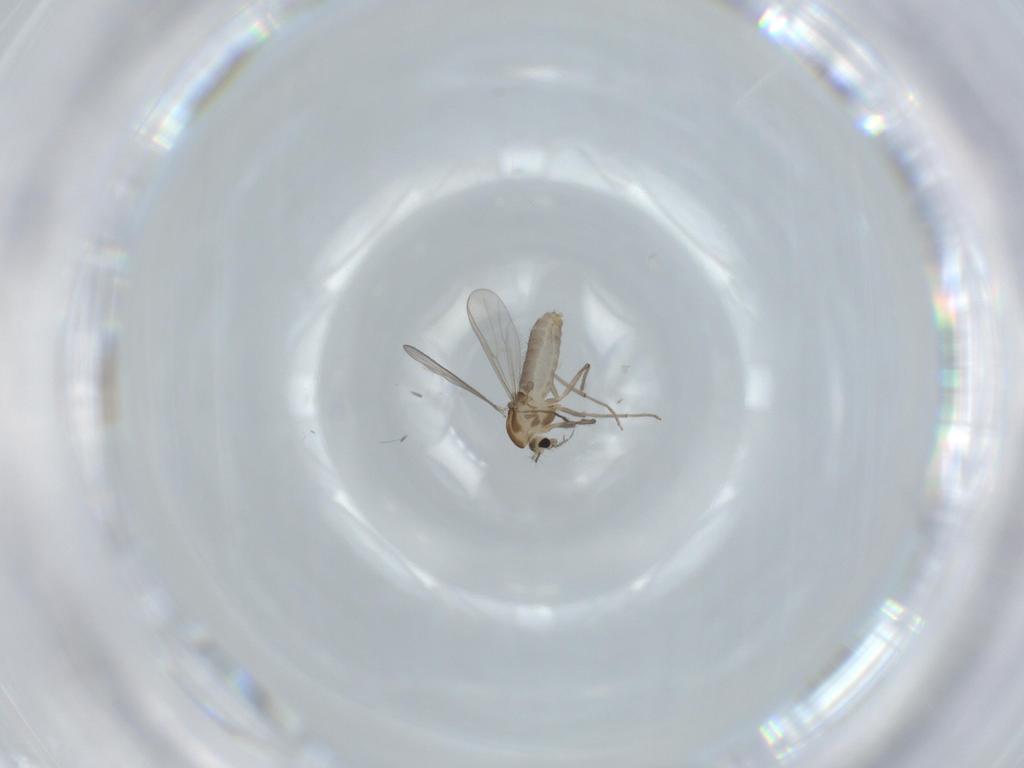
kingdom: Animalia
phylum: Arthropoda
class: Insecta
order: Diptera
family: Chironomidae
